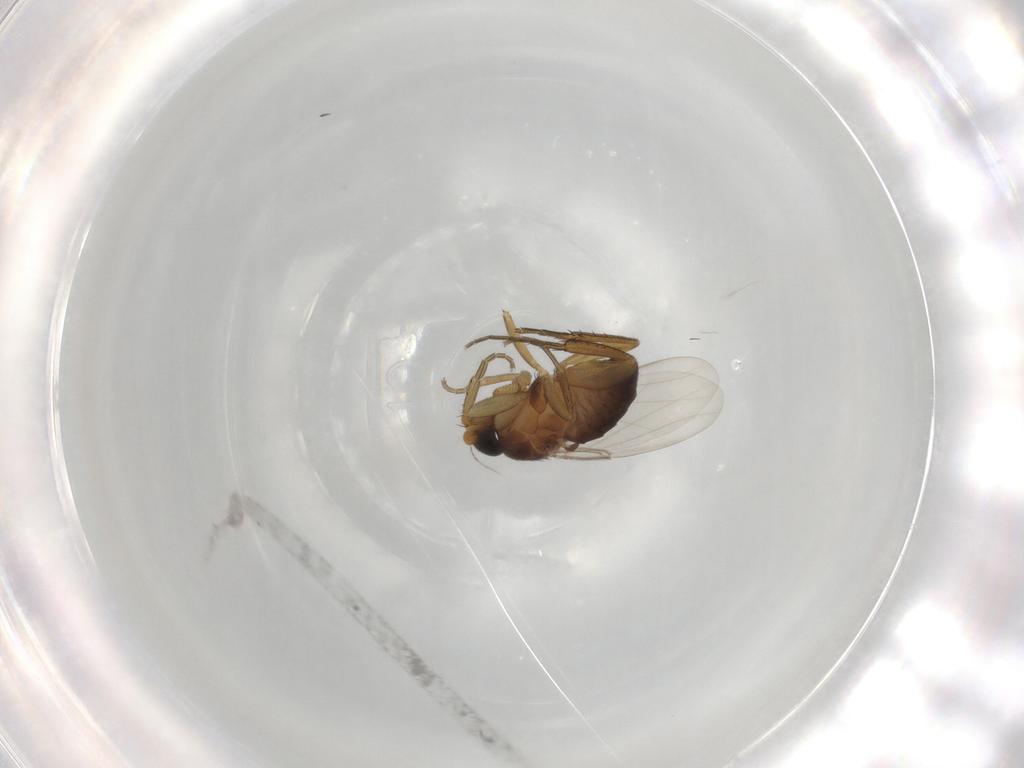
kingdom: Animalia
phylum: Arthropoda
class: Insecta
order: Diptera
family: Phoridae
